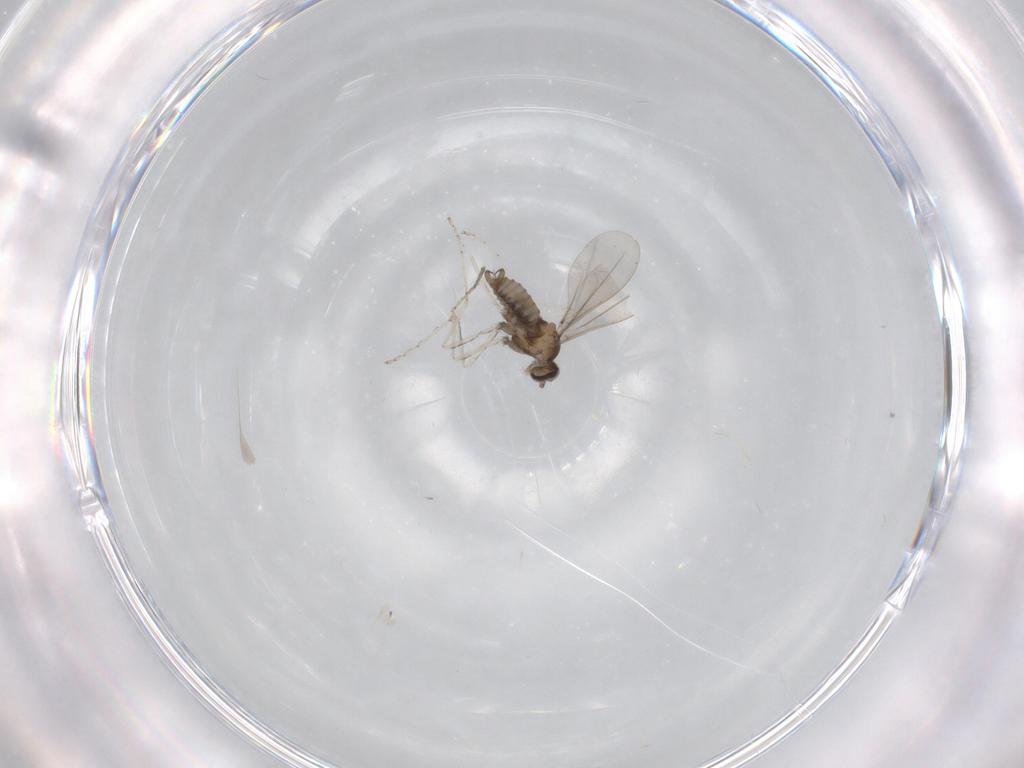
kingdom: Animalia
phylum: Arthropoda
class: Insecta
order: Diptera
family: Cecidomyiidae
